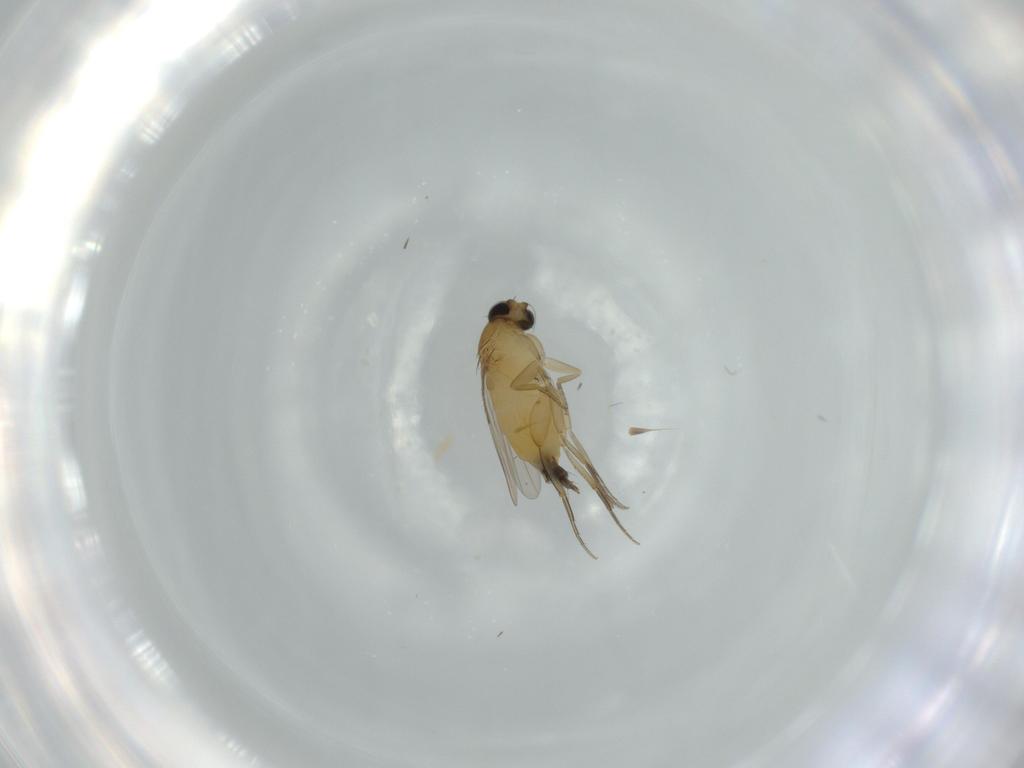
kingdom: Animalia
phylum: Arthropoda
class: Insecta
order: Diptera
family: Phoridae
